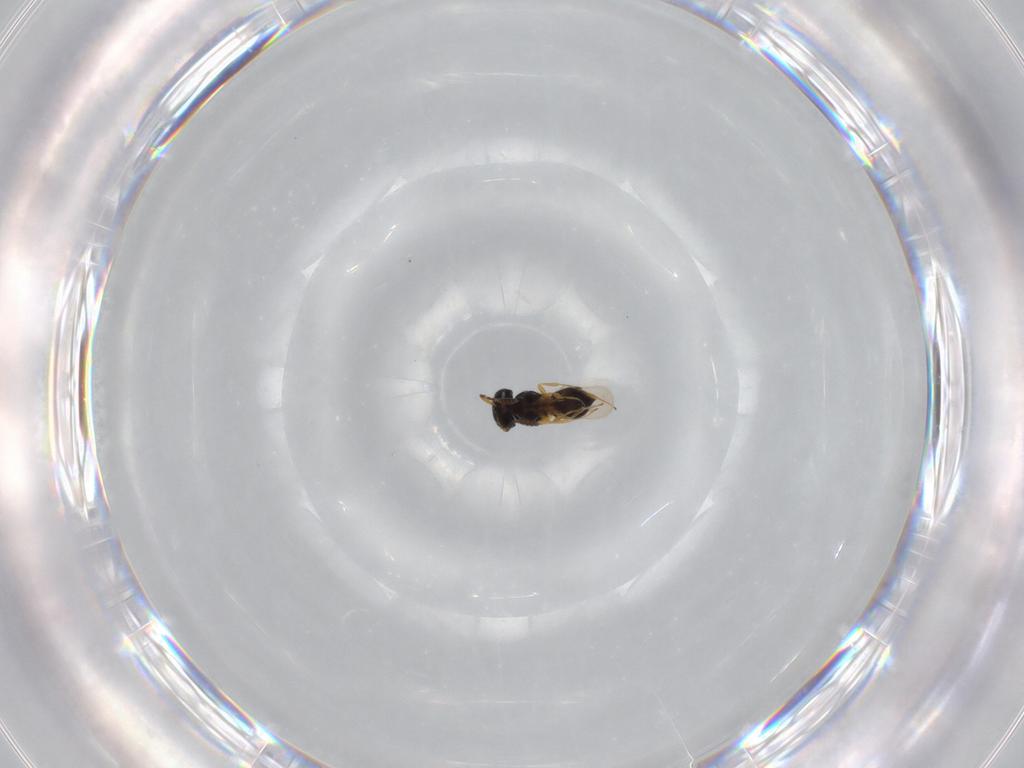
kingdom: Animalia
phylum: Arthropoda
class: Insecta
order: Hymenoptera
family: Scelionidae
